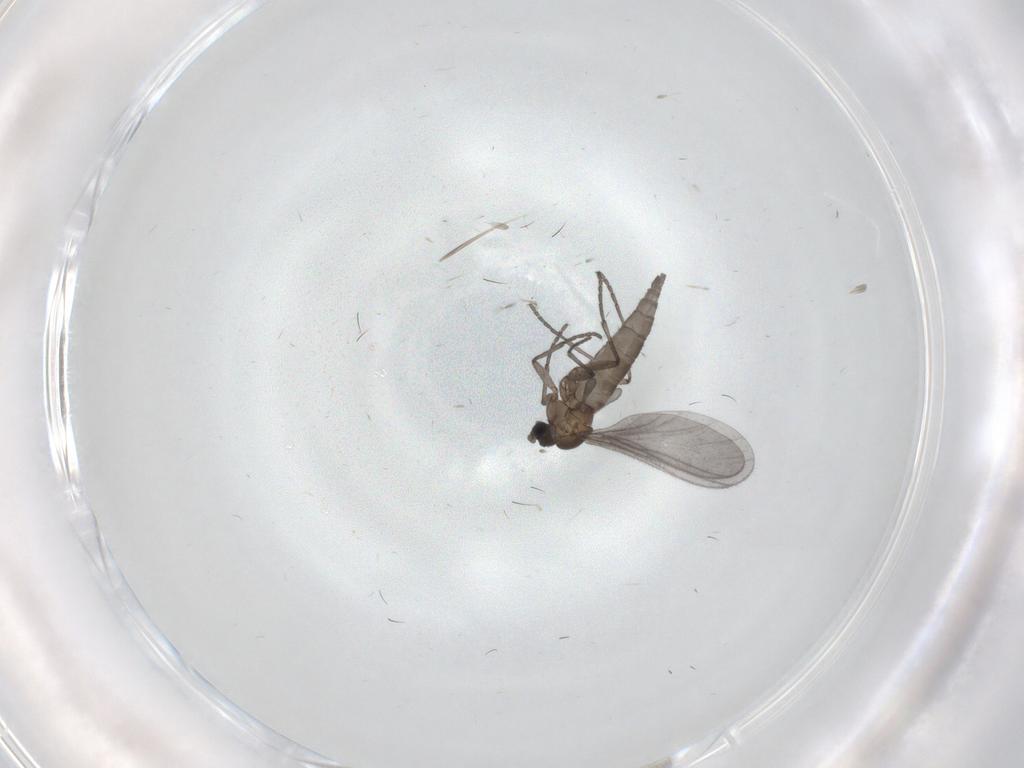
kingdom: Animalia
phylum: Arthropoda
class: Insecta
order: Diptera
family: Sciaridae
